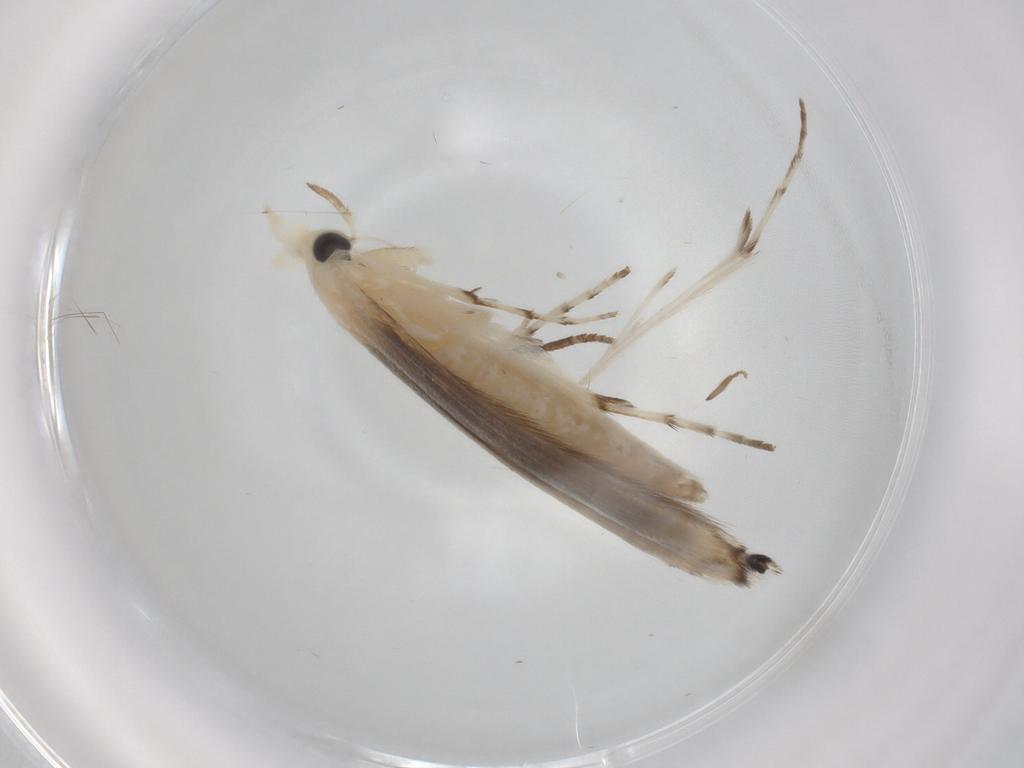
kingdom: Animalia
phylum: Arthropoda
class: Insecta
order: Lepidoptera
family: Lyonetiidae
